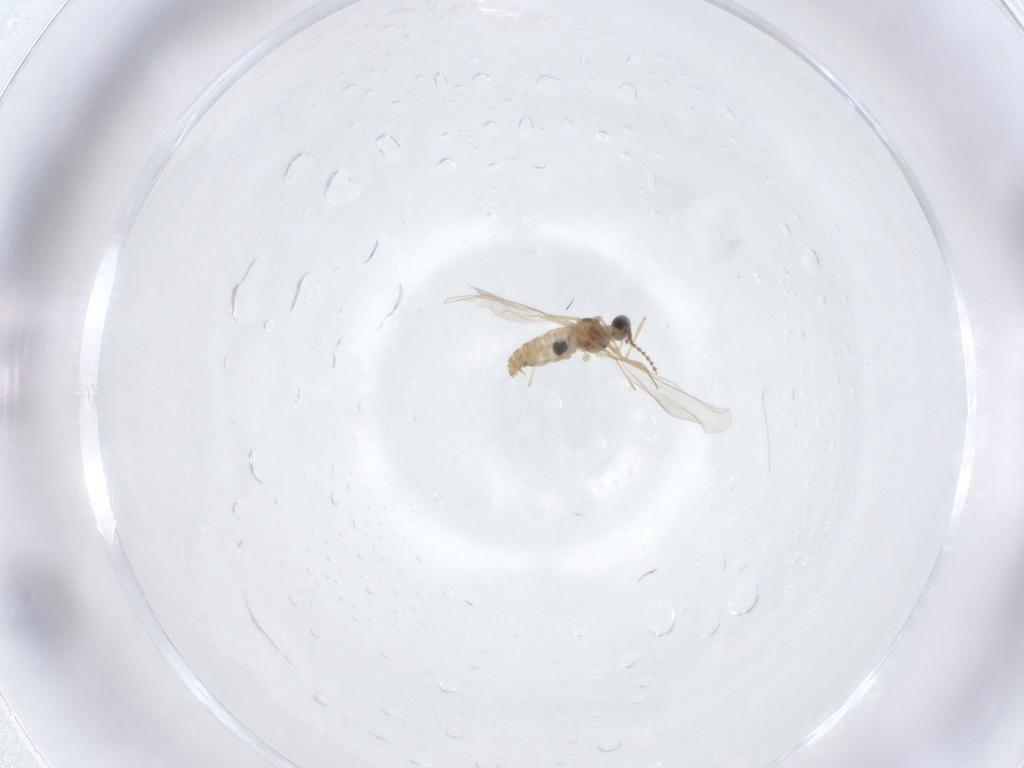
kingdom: Animalia
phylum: Arthropoda
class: Insecta
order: Diptera
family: Cecidomyiidae
